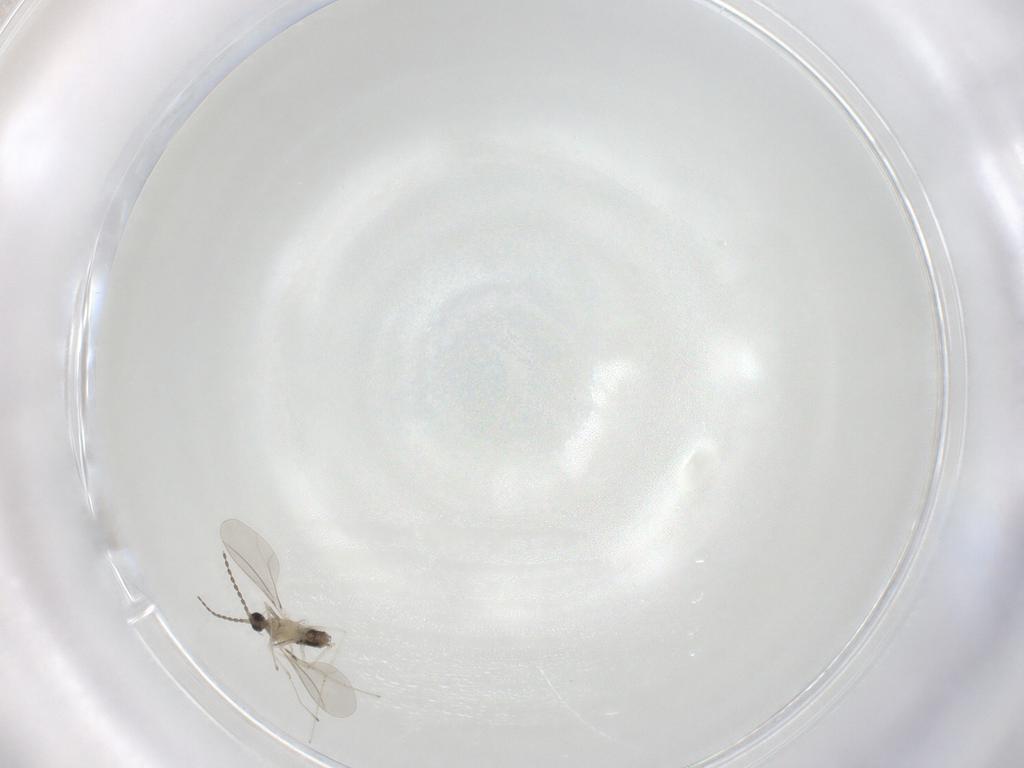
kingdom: Animalia
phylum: Arthropoda
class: Insecta
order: Diptera
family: Cecidomyiidae
